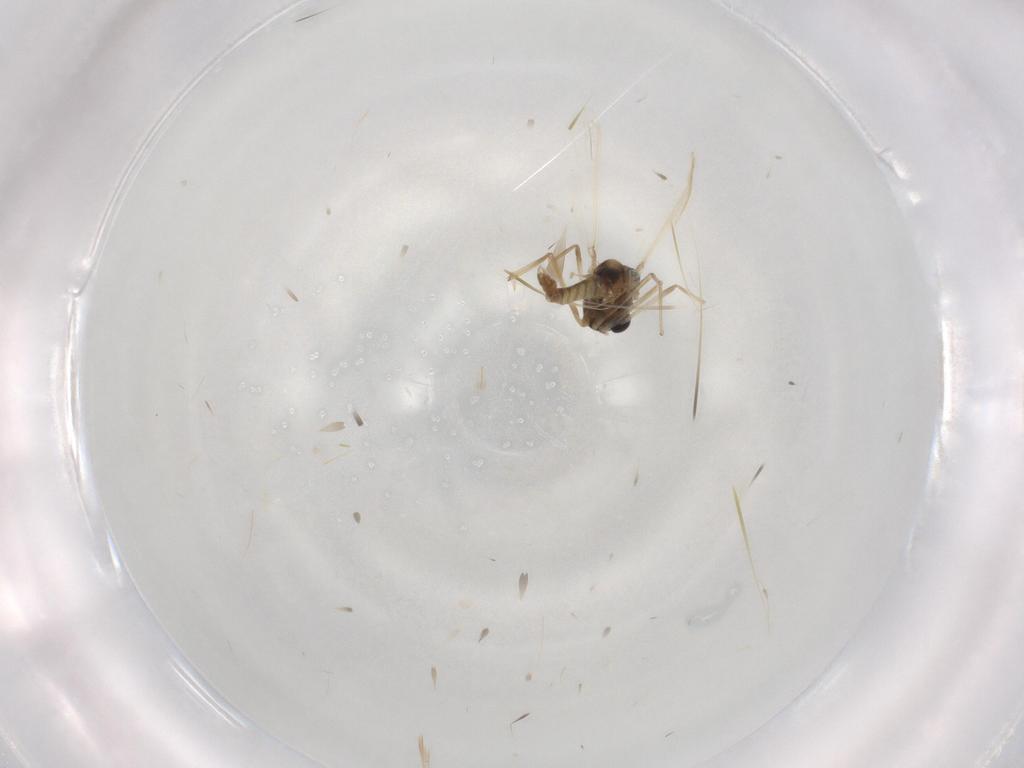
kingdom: Animalia
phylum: Arthropoda
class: Insecta
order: Diptera
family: Chironomidae
